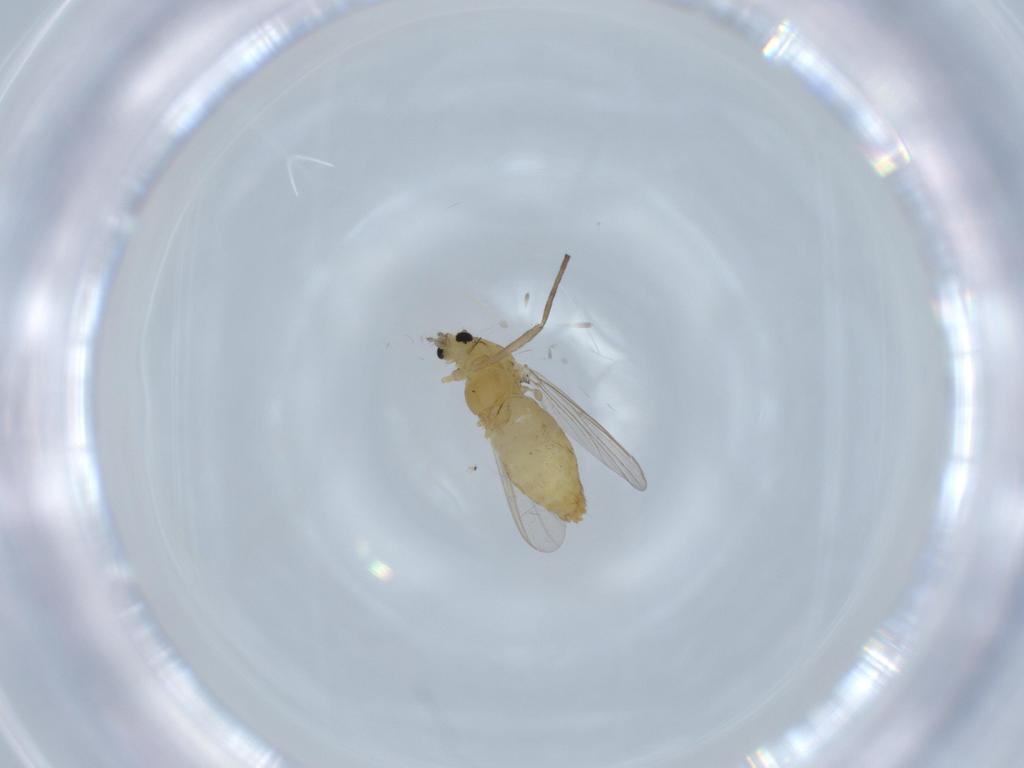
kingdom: Animalia
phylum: Arthropoda
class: Insecta
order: Diptera
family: Chironomidae
